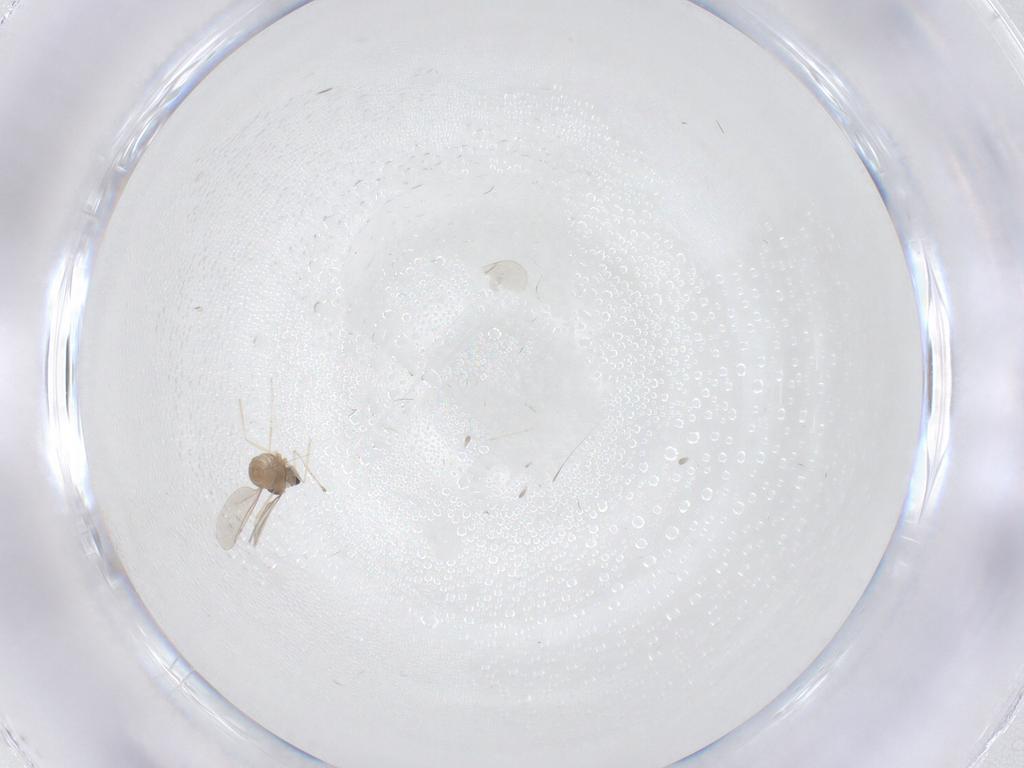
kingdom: Animalia
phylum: Arthropoda
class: Insecta
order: Diptera
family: Cecidomyiidae
